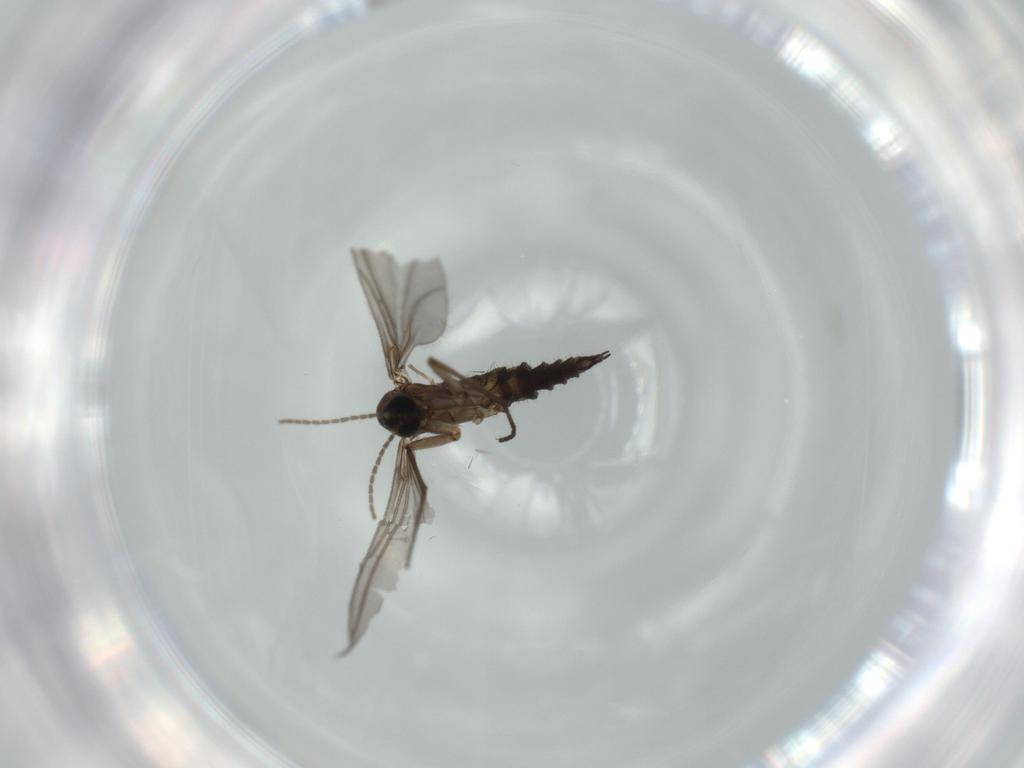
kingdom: Animalia
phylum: Arthropoda
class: Insecta
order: Diptera
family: Sciaridae
